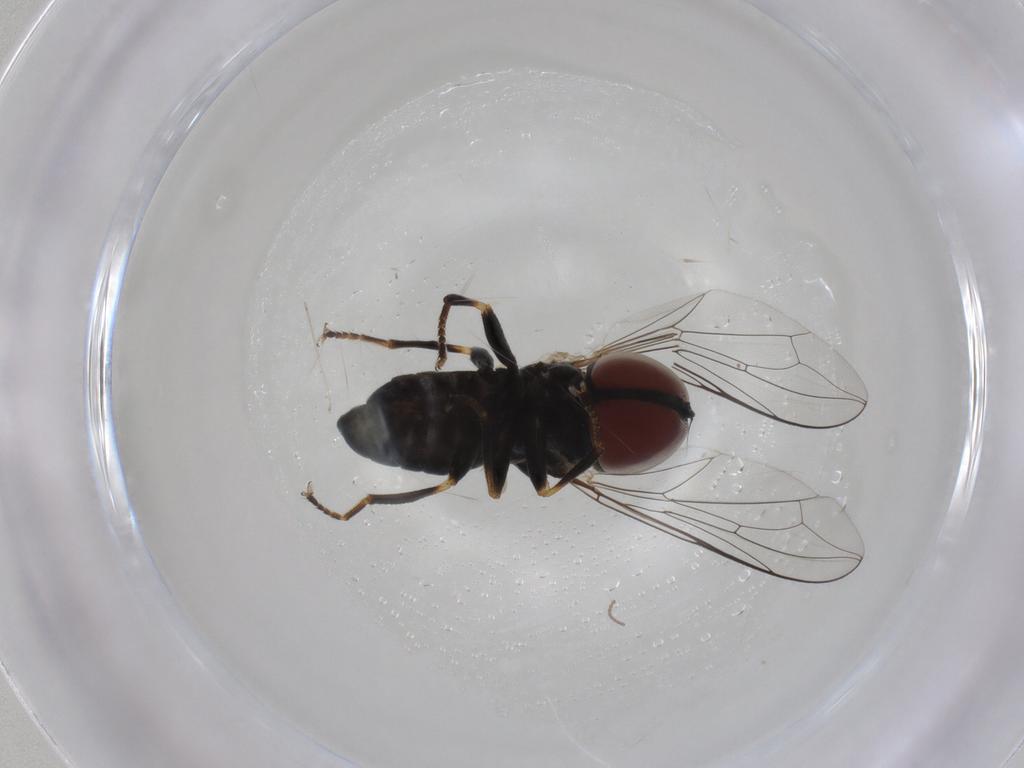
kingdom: Animalia
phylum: Arthropoda
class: Insecta
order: Diptera
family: Pipunculidae
